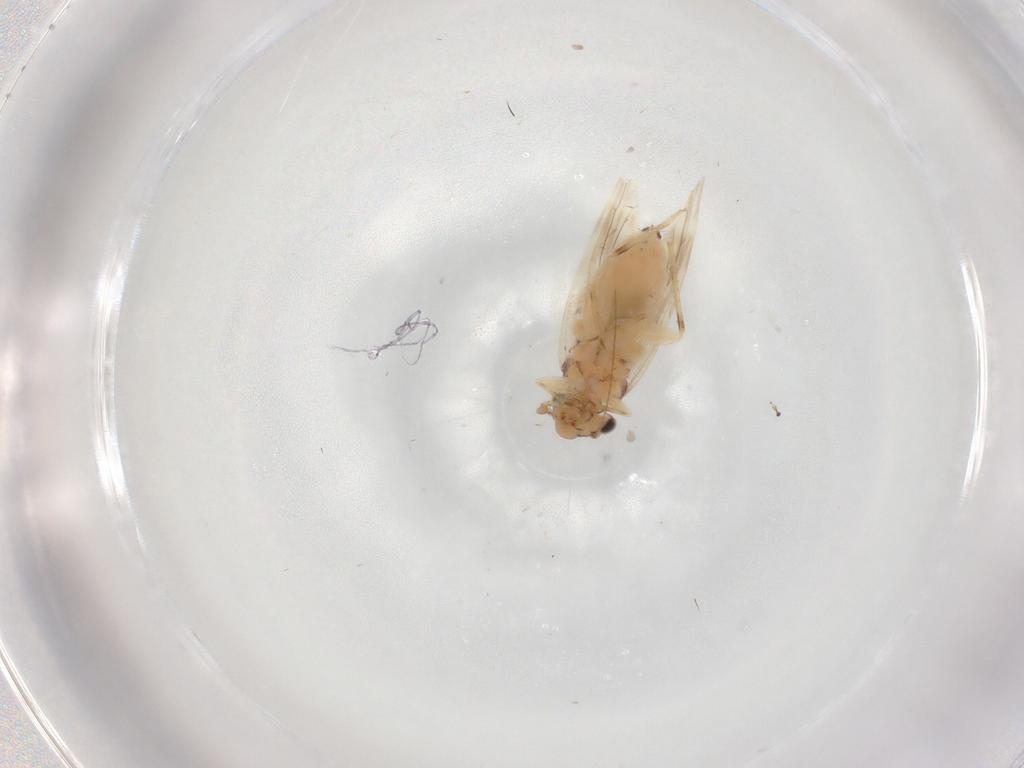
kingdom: Animalia
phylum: Arthropoda
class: Insecta
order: Psocodea
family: Lepidopsocidae
